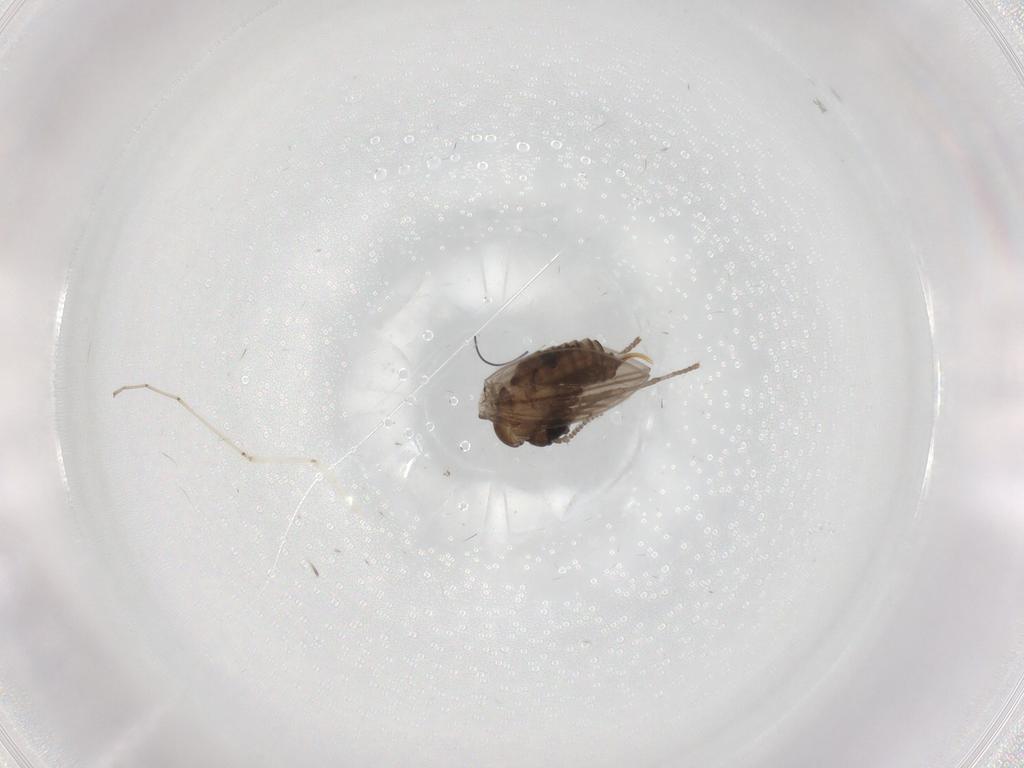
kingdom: Animalia
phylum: Arthropoda
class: Insecta
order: Diptera
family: Psychodidae
